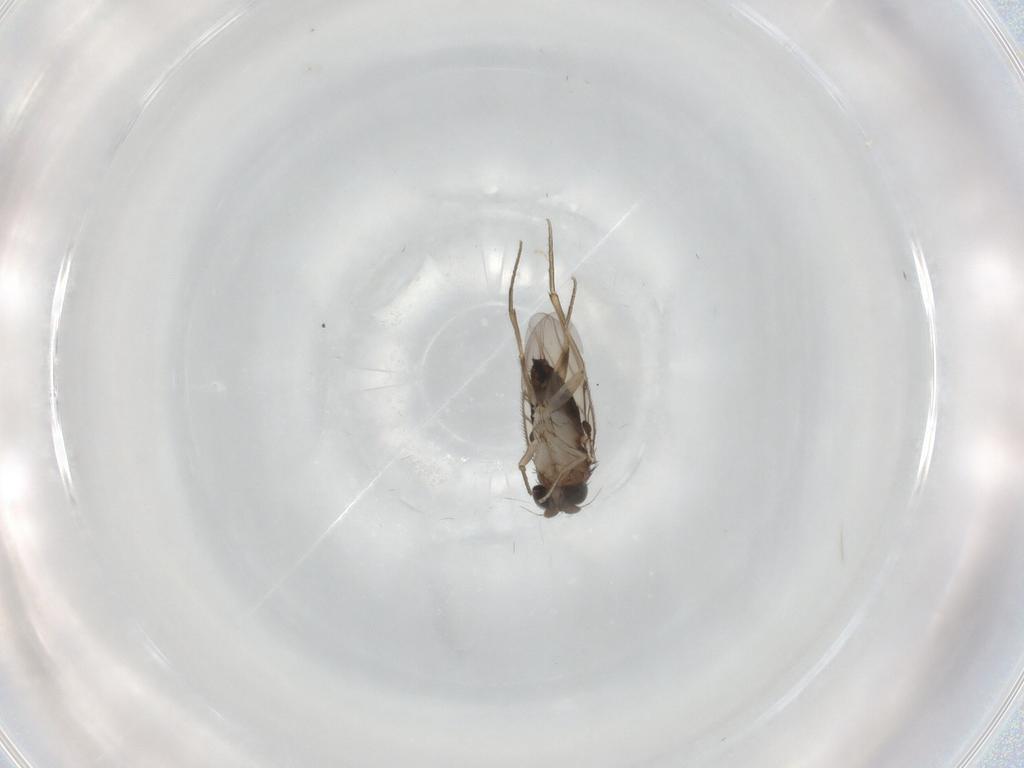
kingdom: Animalia
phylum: Arthropoda
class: Insecta
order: Diptera
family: Phoridae
